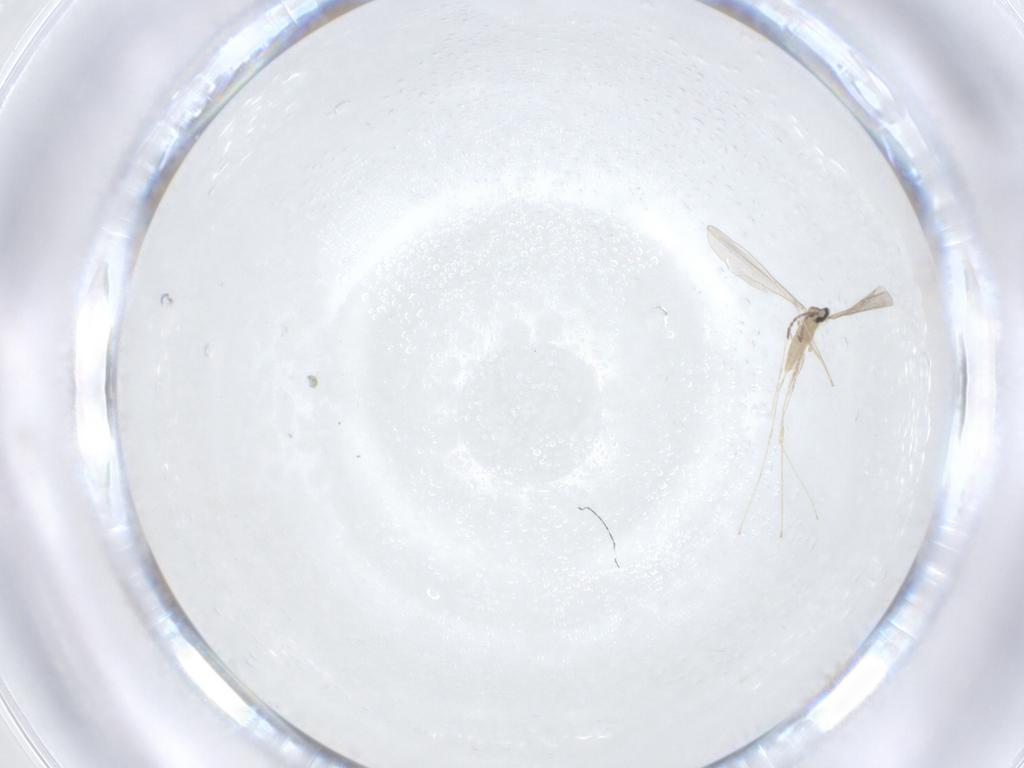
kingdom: Animalia
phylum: Arthropoda
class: Insecta
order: Diptera
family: Cecidomyiidae
